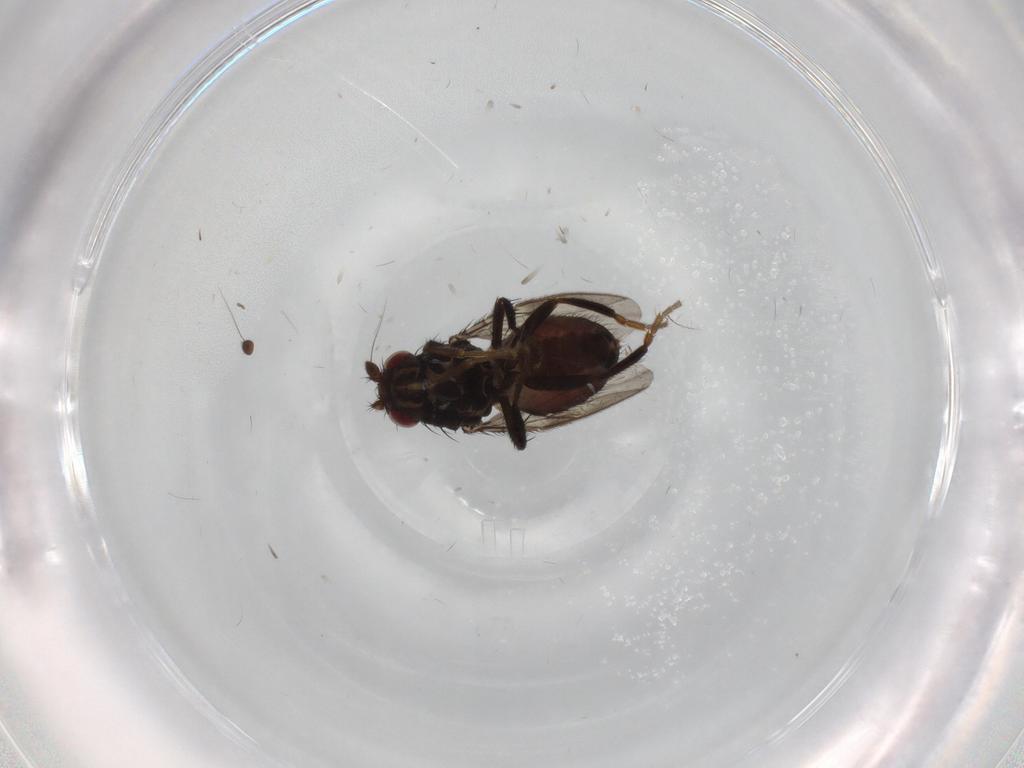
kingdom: Animalia
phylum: Arthropoda
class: Insecta
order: Diptera
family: Sphaeroceridae
